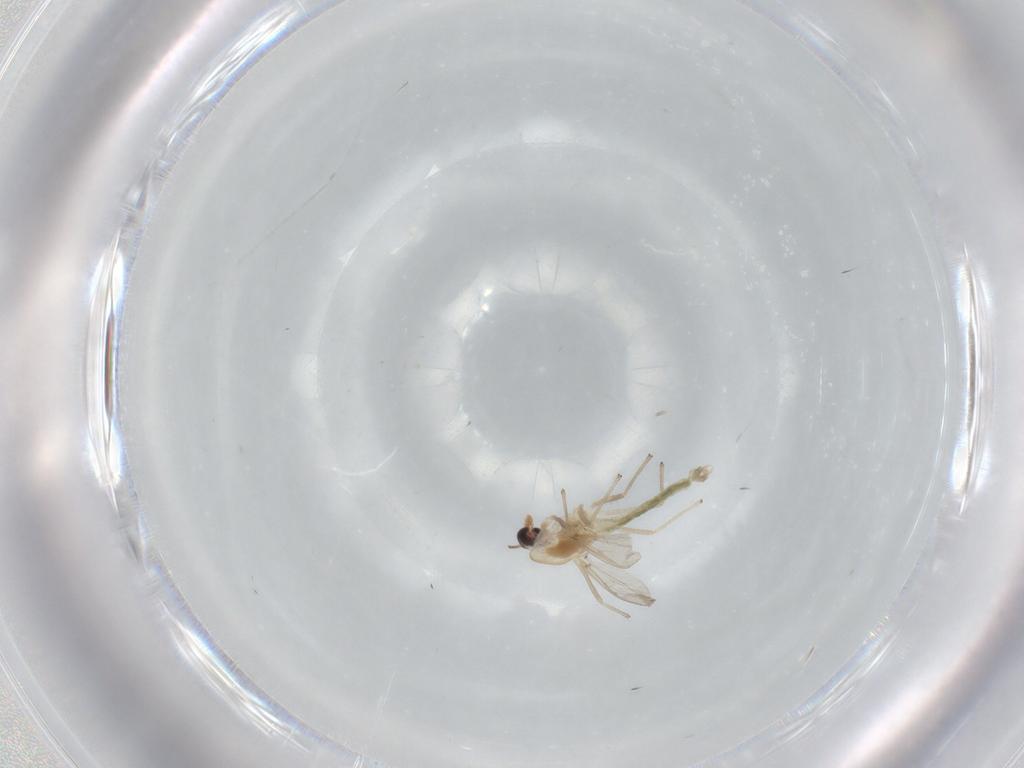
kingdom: Animalia
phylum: Arthropoda
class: Insecta
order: Diptera
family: Chironomidae
